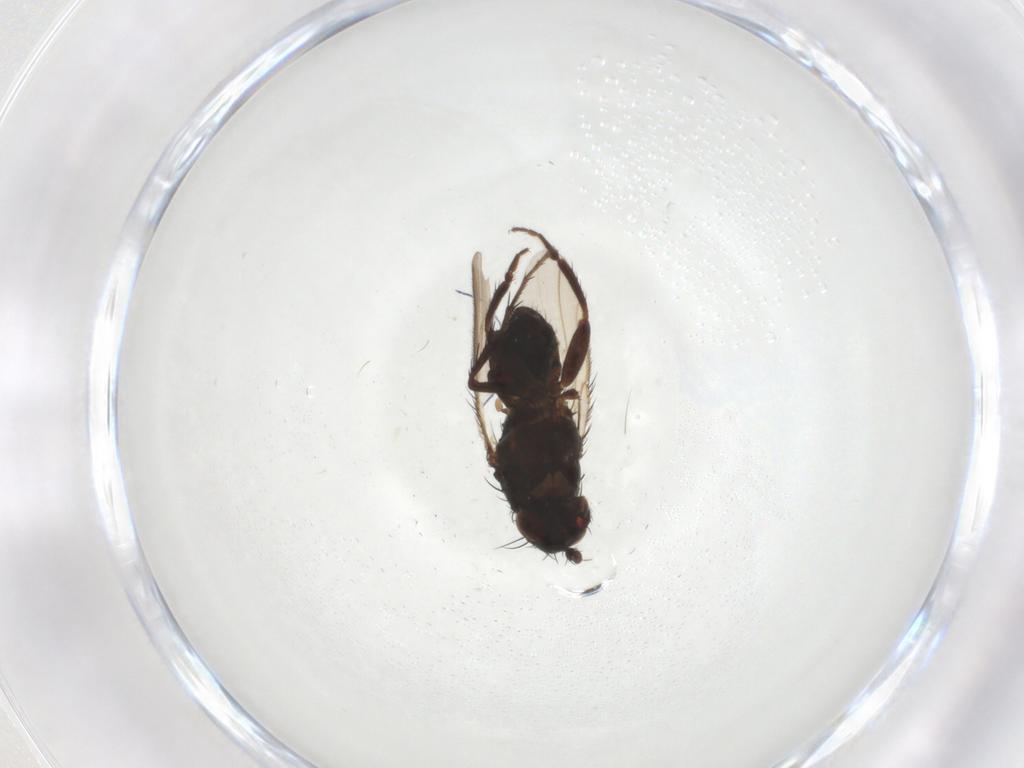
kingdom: Animalia
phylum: Arthropoda
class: Insecta
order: Diptera
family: Sphaeroceridae
